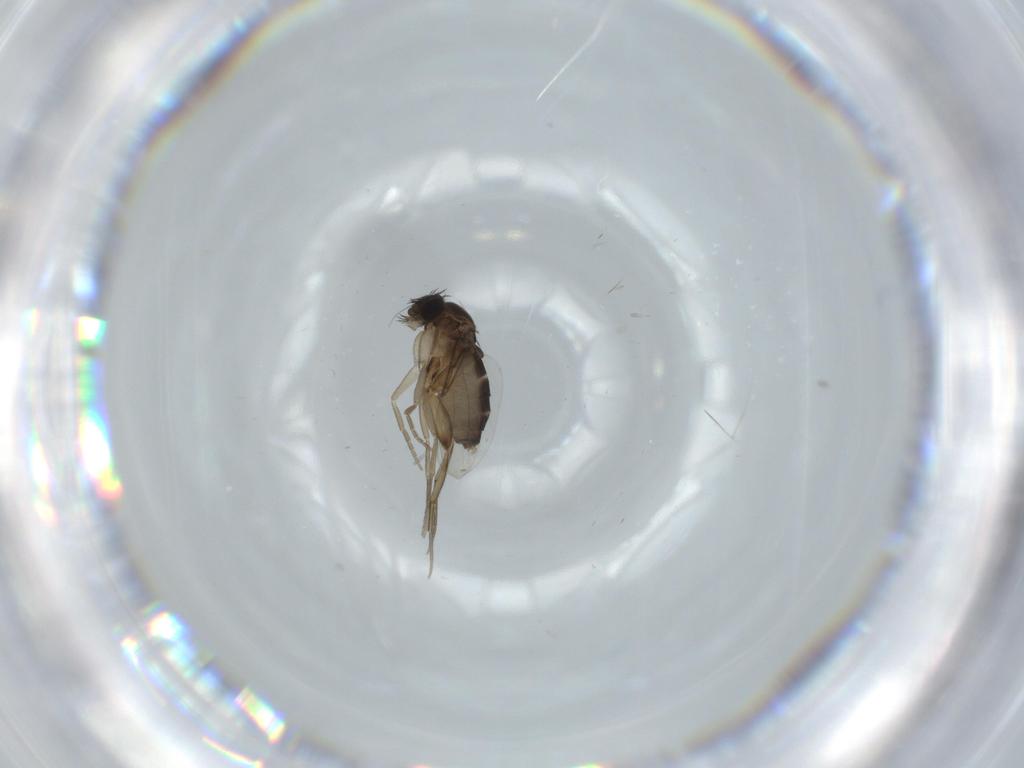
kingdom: Animalia
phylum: Arthropoda
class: Insecta
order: Diptera
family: Phoridae
